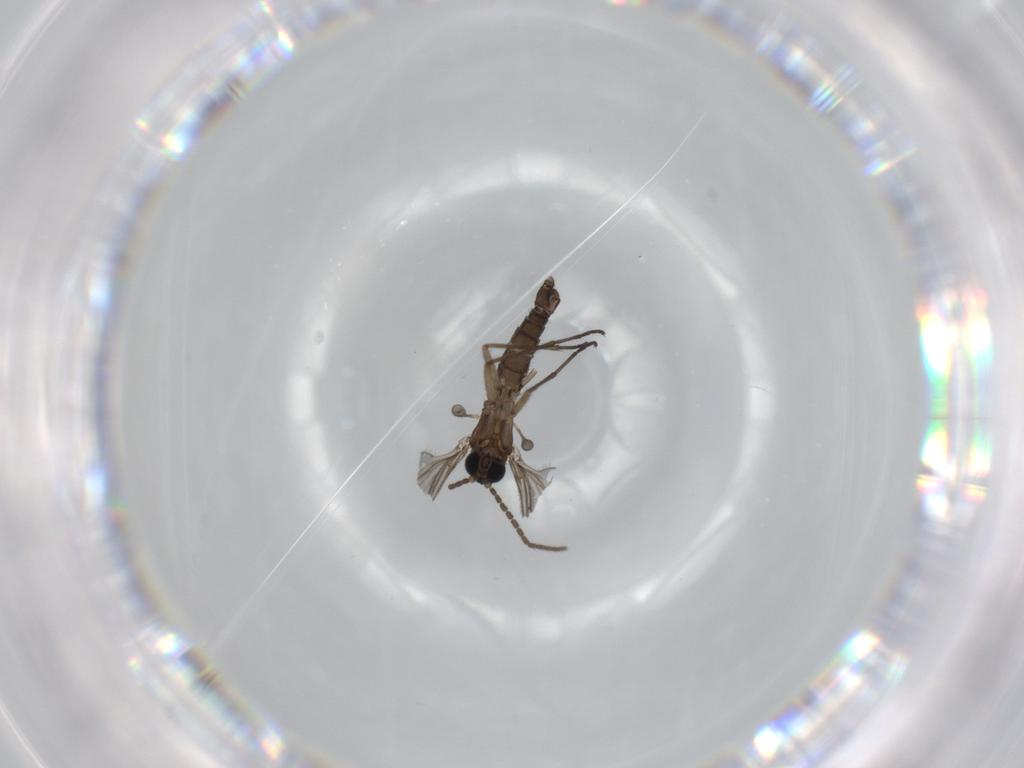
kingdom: Animalia
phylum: Arthropoda
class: Insecta
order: Diptera
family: Sciaridae
